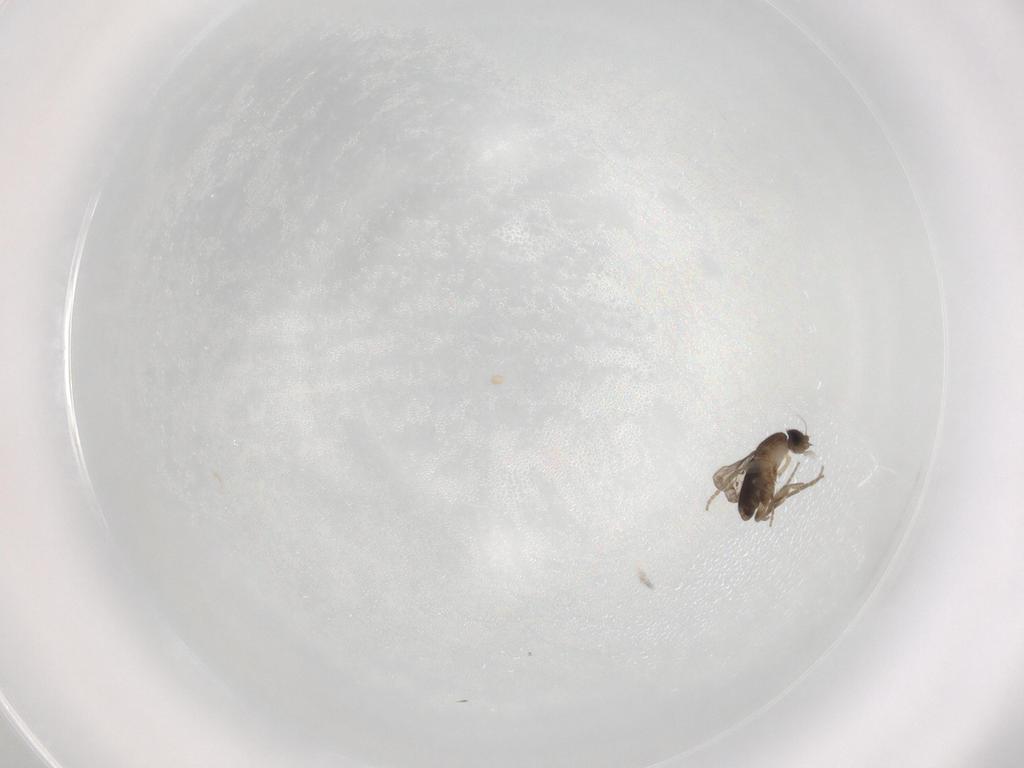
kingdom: Animalia
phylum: Arthropoda
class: Insecta
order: Diptera
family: Phoridae
